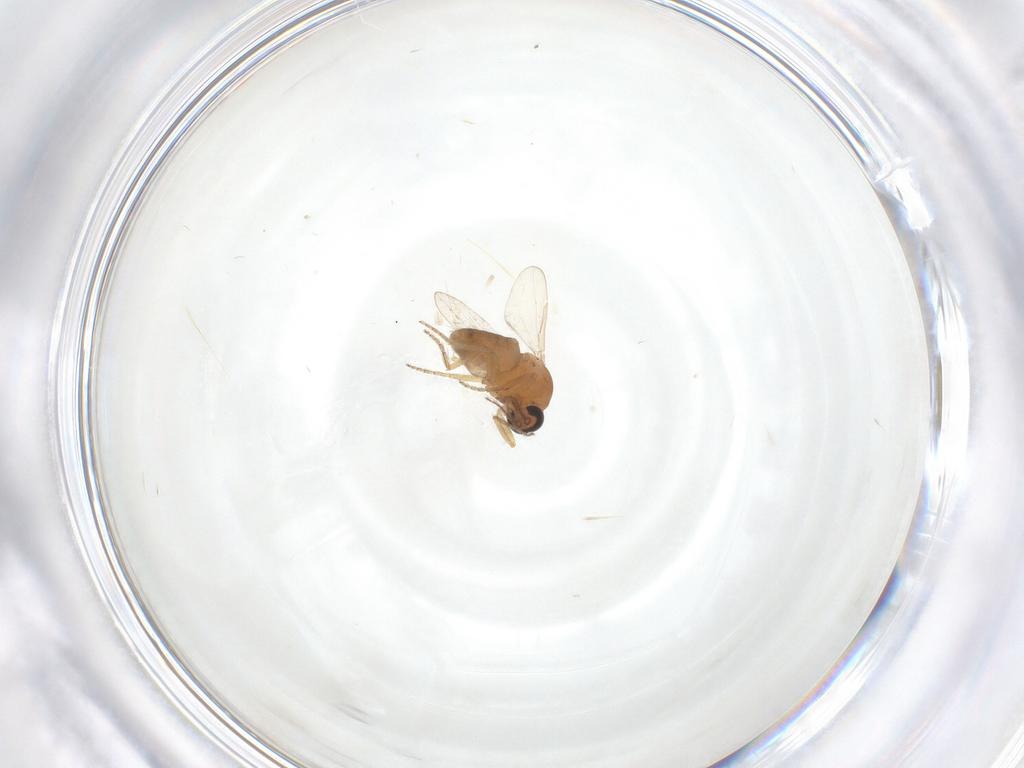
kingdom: Animalia
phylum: Arthropoda
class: Insecta
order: Diptera
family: Ceratopogonidae
